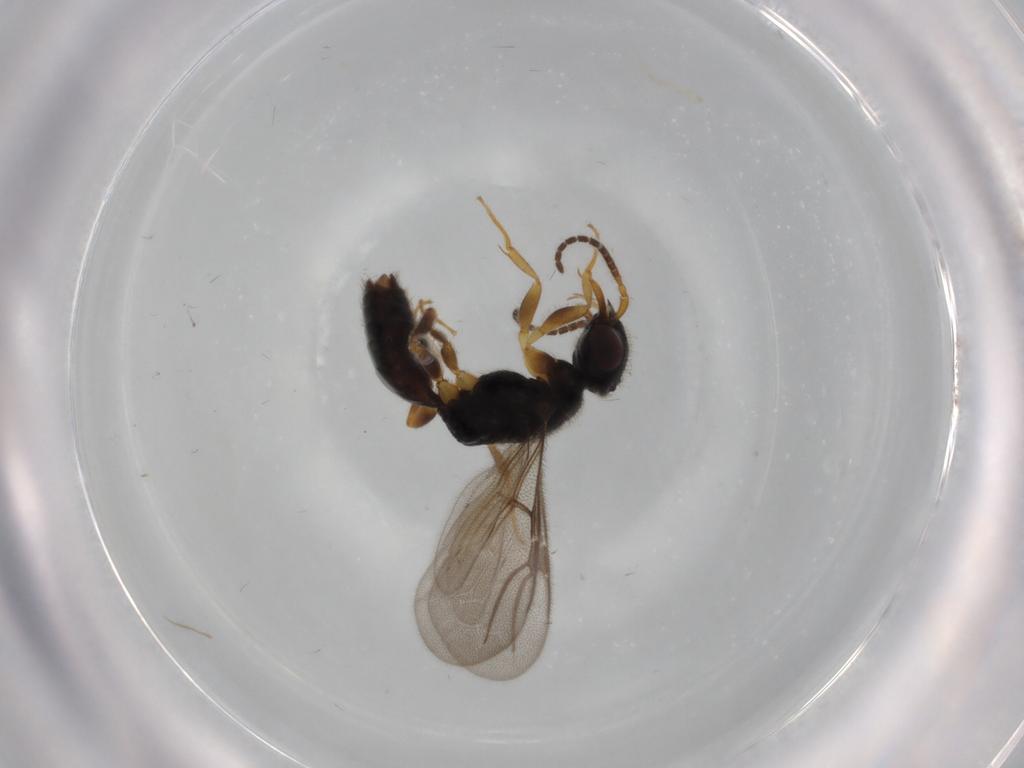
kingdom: Animalia
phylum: Arthropoda
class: Insecta
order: Hymenoptera
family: Bethylidae
